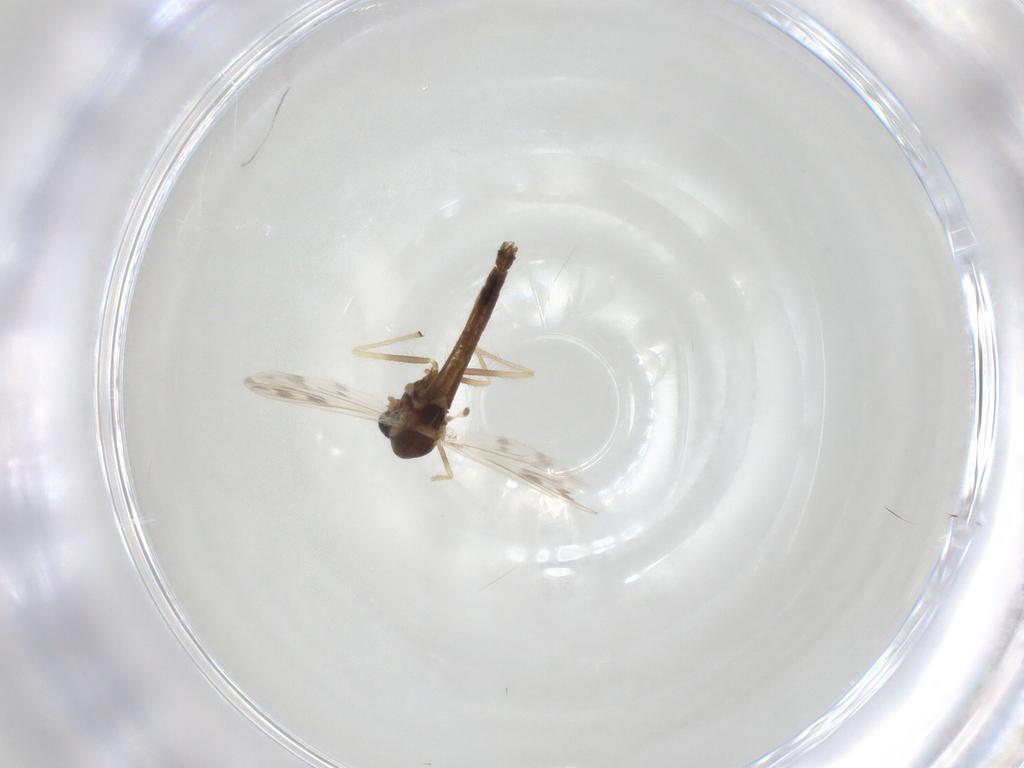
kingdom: Animalia
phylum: Arthropoda
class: Insecta
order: Diptera
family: Chironomidae
